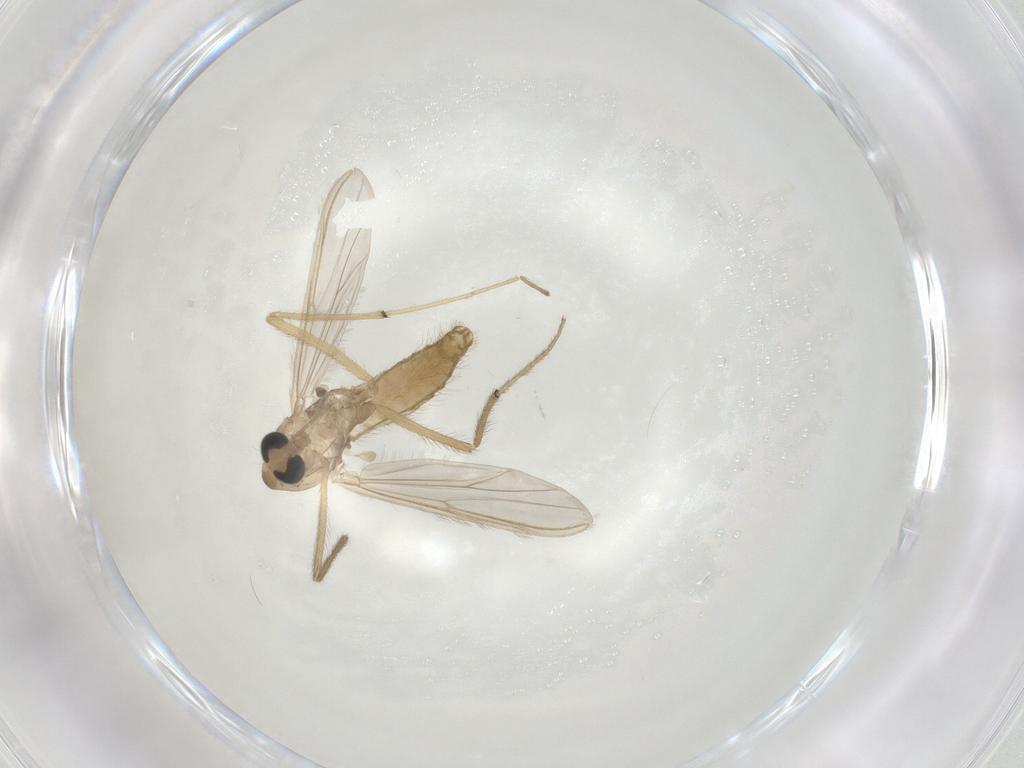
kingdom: Animalia
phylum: Arthropoda
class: Insecta
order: Diptera
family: Chironomidae
